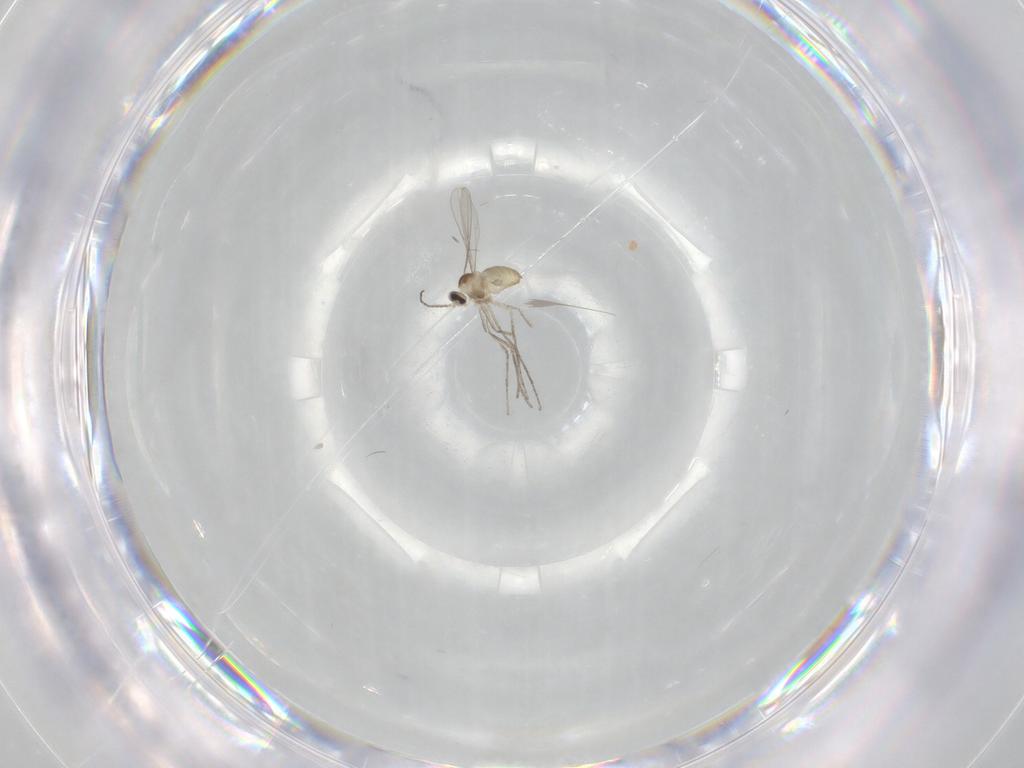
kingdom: Animalia
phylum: Arthropoda
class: Insecta
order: Diptera
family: Cecidomyiidae
